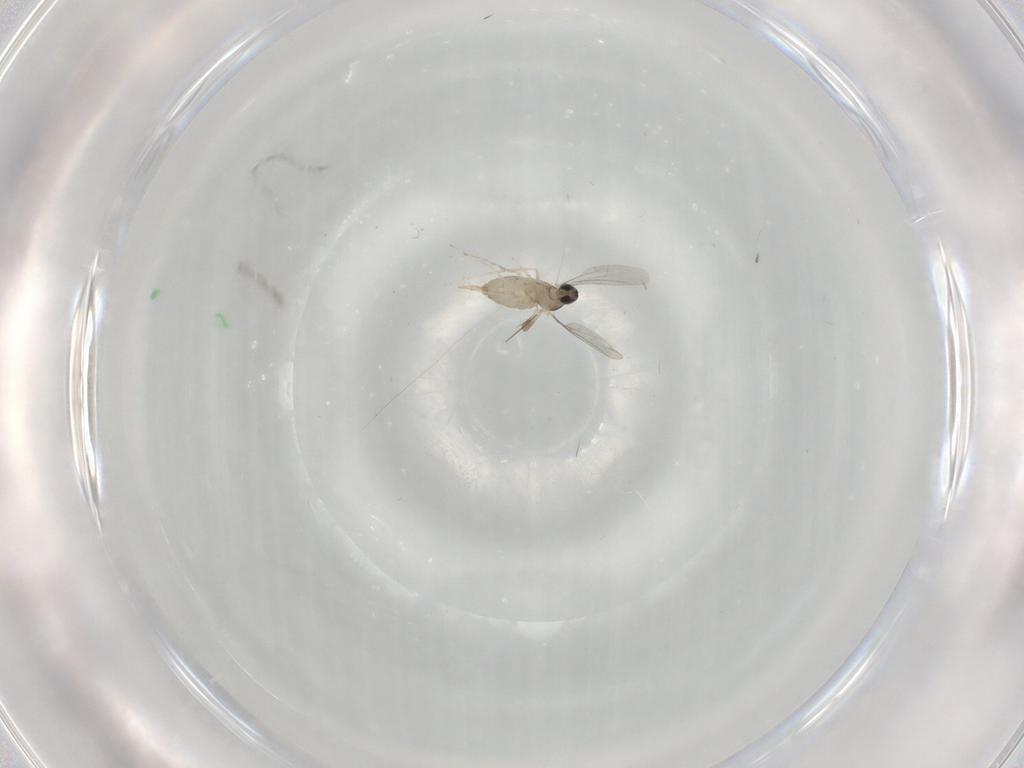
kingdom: Animalia
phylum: Arthropoda
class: Insecta
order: Diptera
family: Cecidomyiidae
